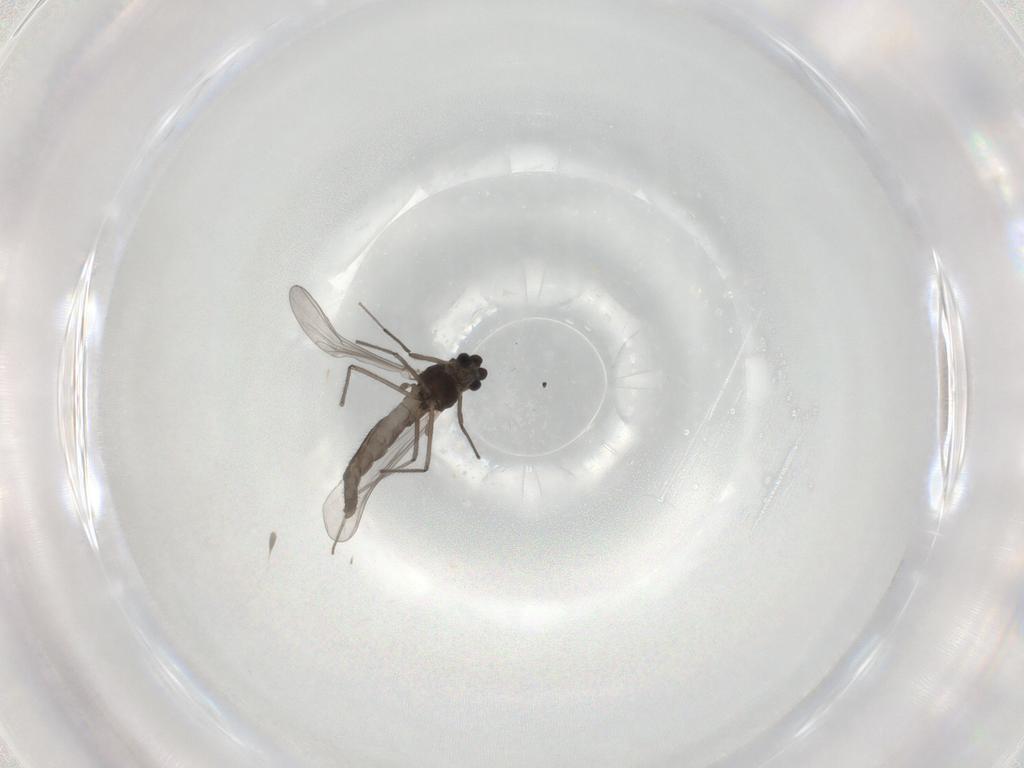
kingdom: Animalia
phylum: Arthropoda
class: Insecta
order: Diptera
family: Chironomidae
